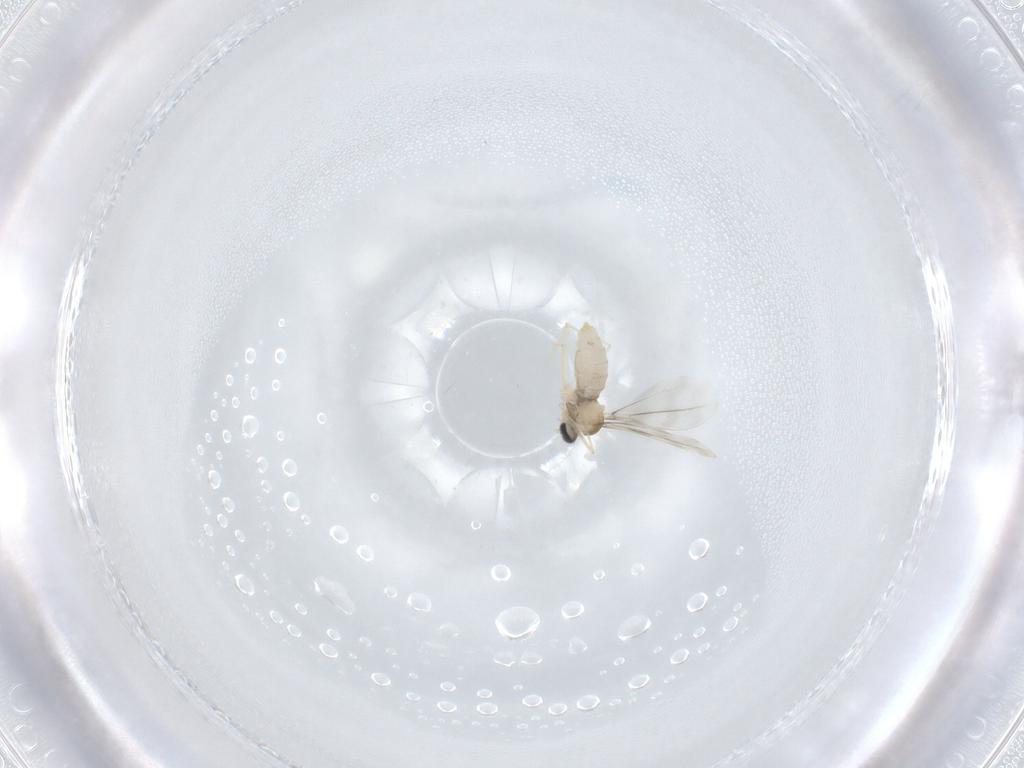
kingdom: Animalia
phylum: Arthropoda
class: Insecta
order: Diptera
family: Cecidomyiidae
